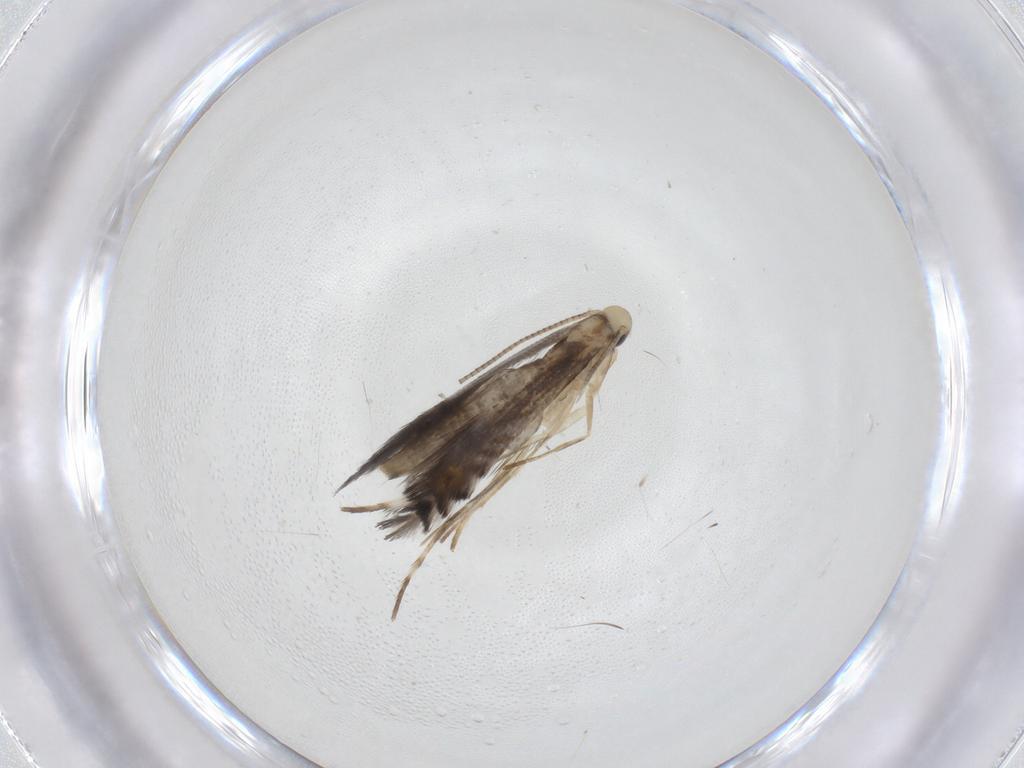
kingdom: Animalia
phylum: Arthropoda
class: Insecta
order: Lepidoptera
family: Gracillariidae
